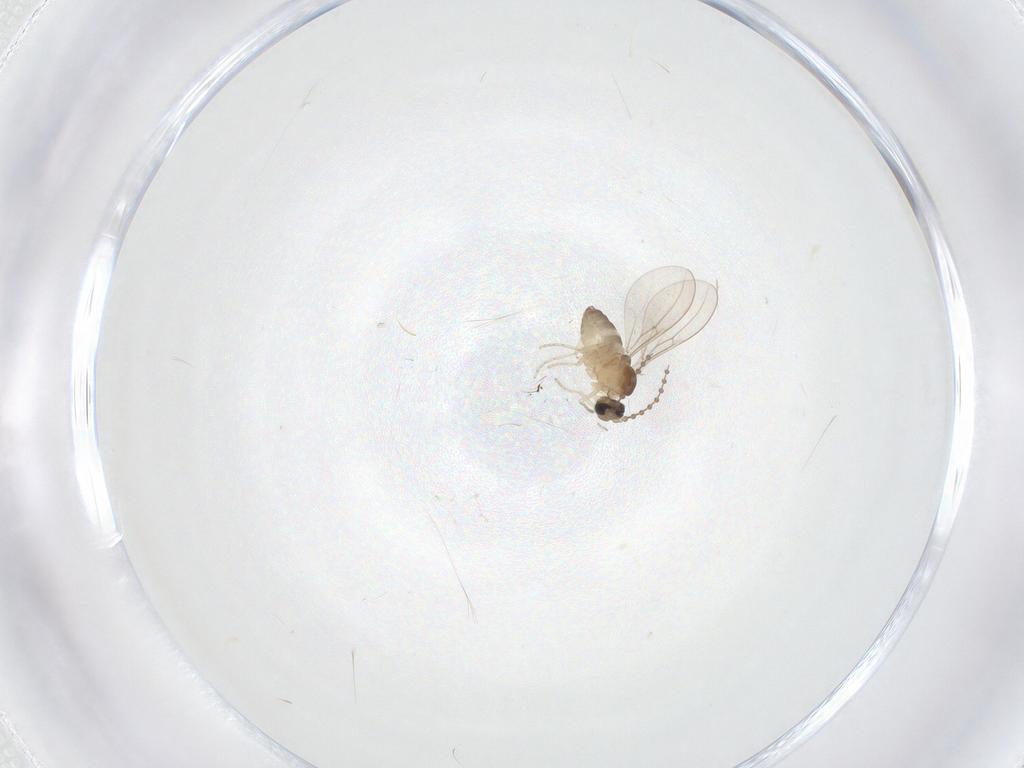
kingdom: Animalia
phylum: Arthropoda
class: Insecta
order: Diptera
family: Cecidomyiidae
